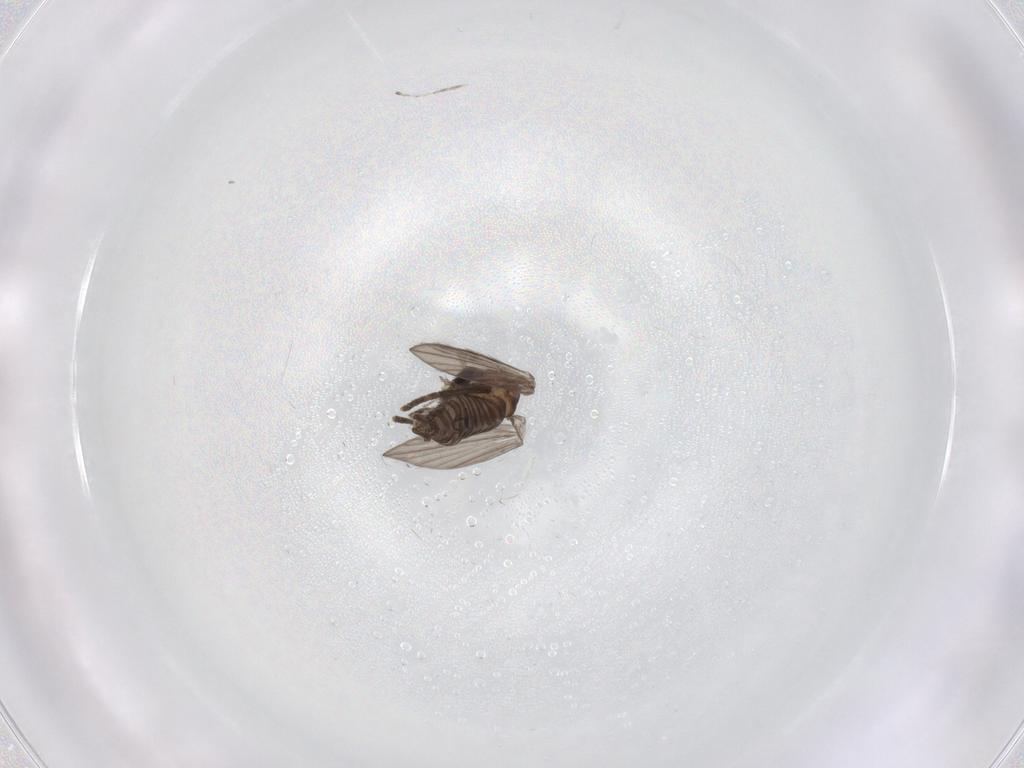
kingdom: Animalia
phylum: Arthropoda
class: Insecta
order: Diptera
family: Psychodidae
